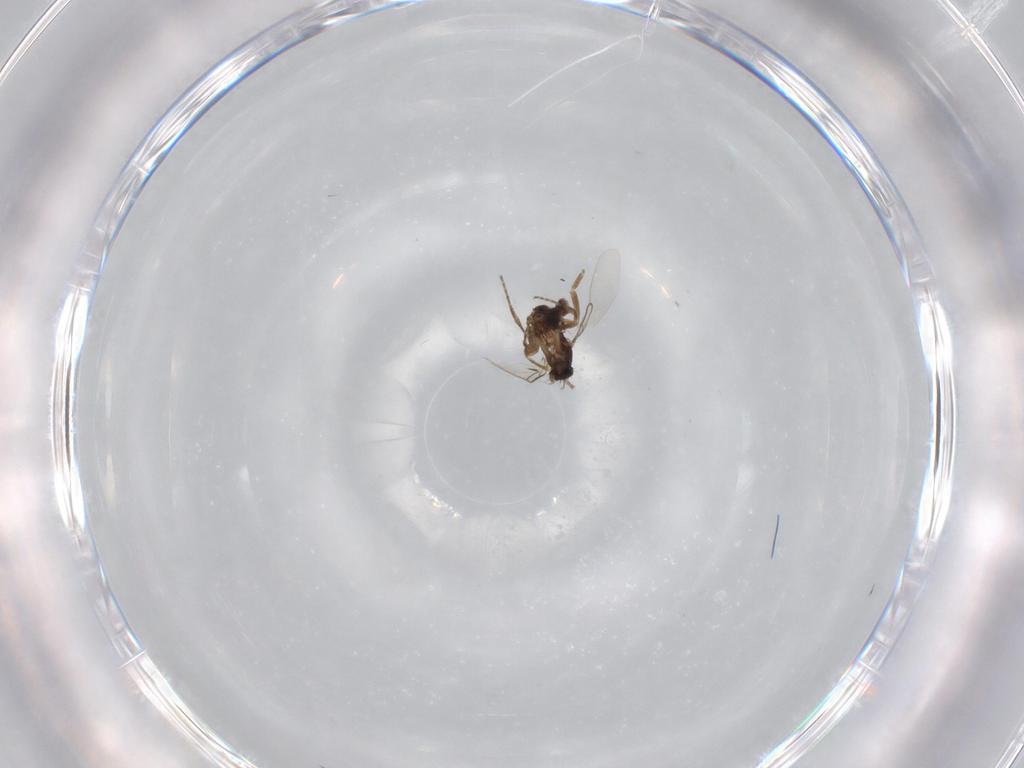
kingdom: Animalia
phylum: Arthropoda
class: Insecta
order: Diptera
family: Phoridae
